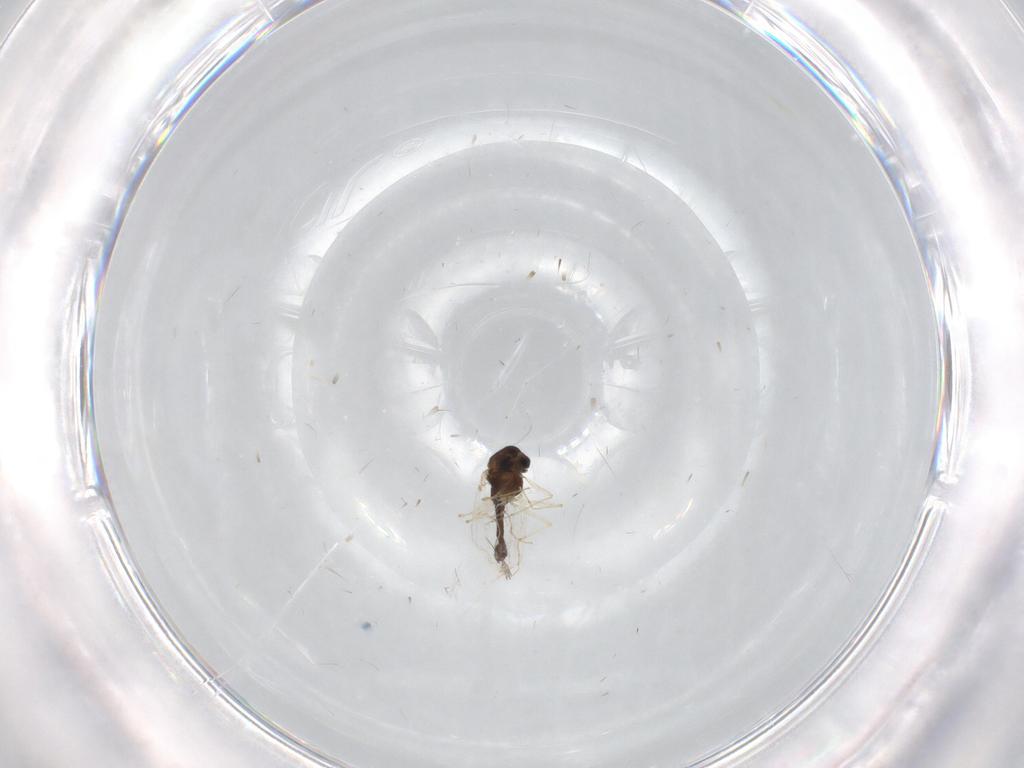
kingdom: Animalia
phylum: Arthropoda
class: Insecta
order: Diptera
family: Chironomidae
